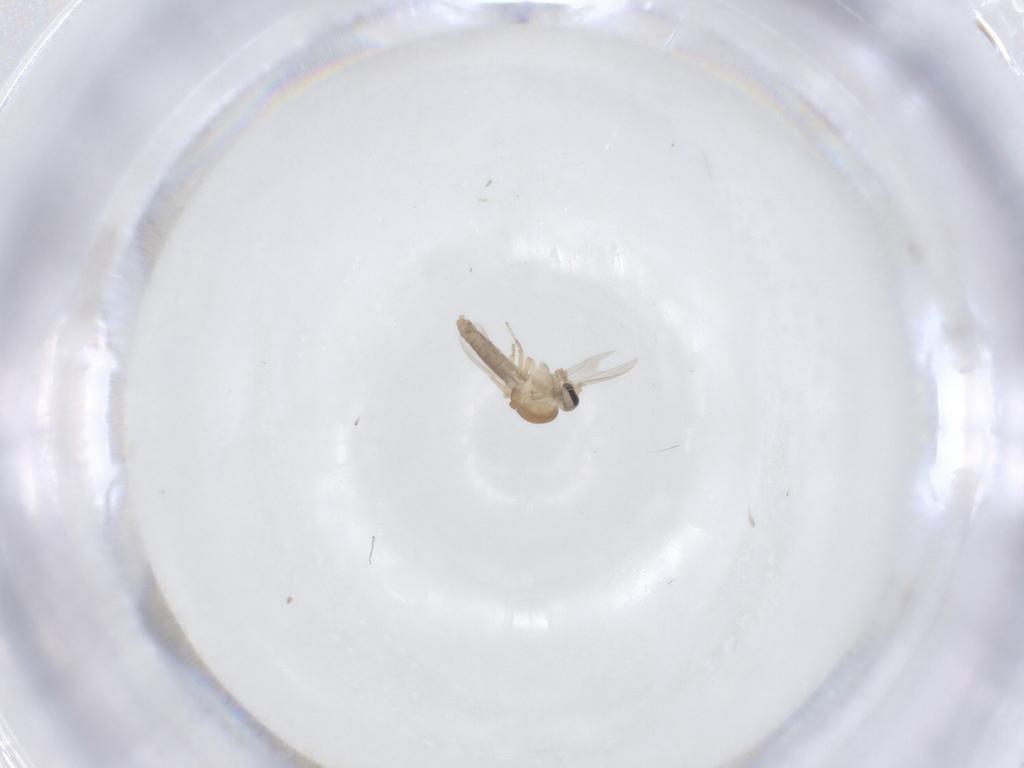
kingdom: Animalia
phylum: Arthropoda
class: Insecta
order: Diptera
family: Ceratopogonidae
